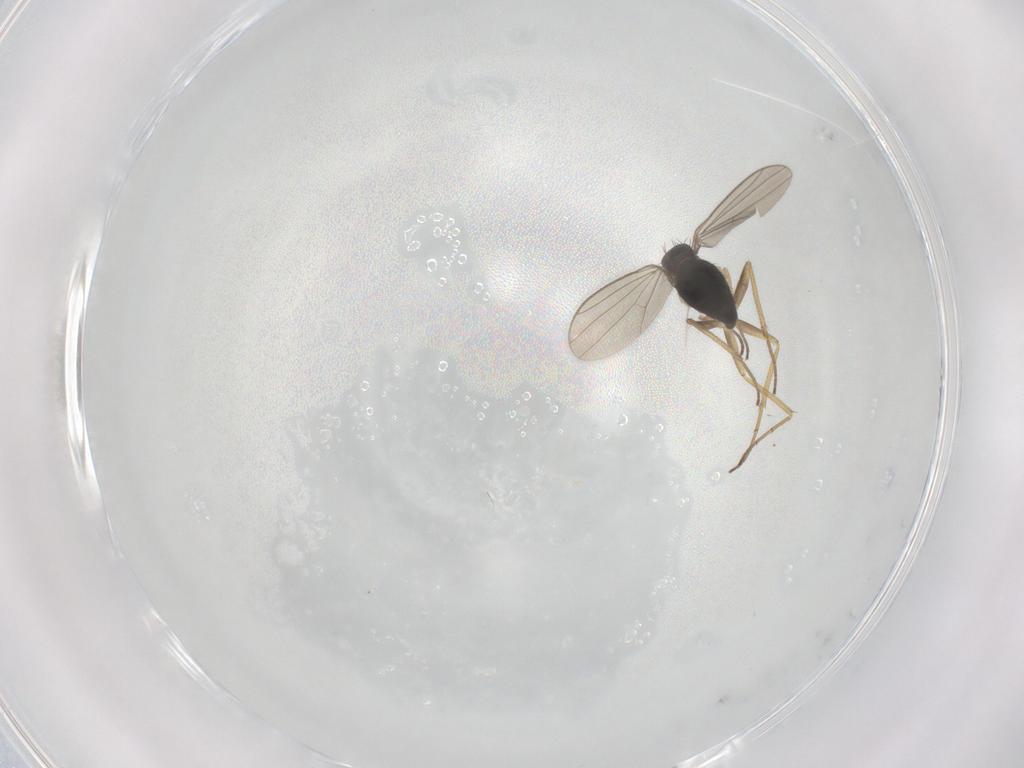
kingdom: Animalia
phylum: Arthropoda
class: Insecta
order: Diptera
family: Dolichopodidae
